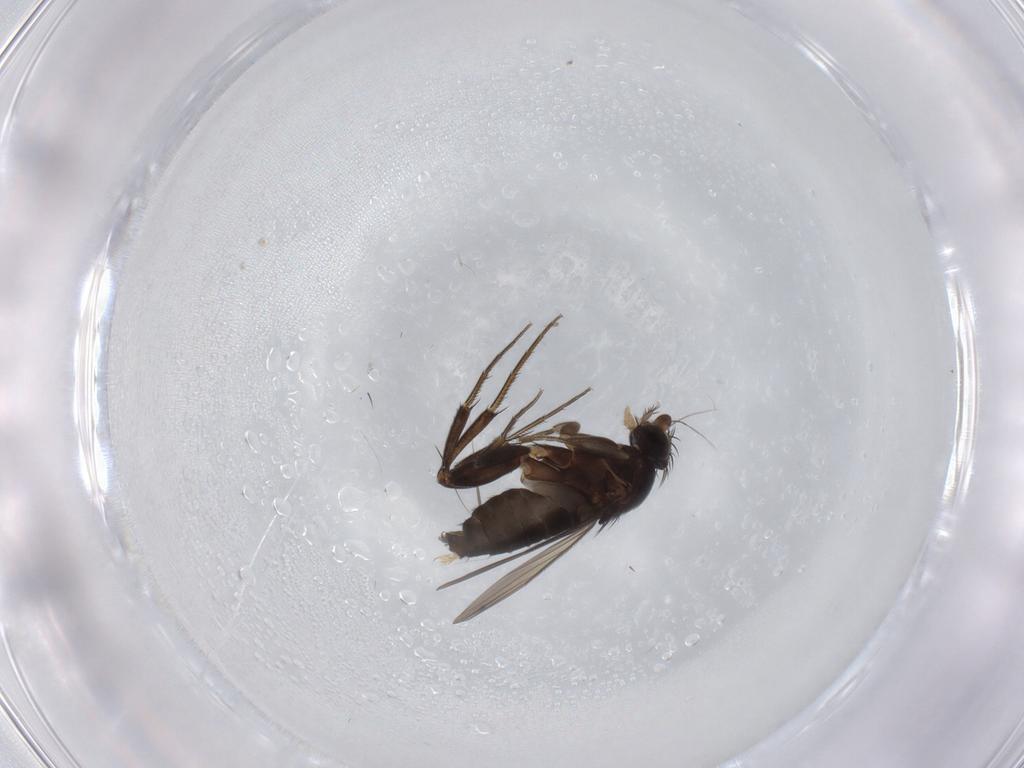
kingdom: Animalia
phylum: Arthropoda
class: Insecta
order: Diptera
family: Phoridae
